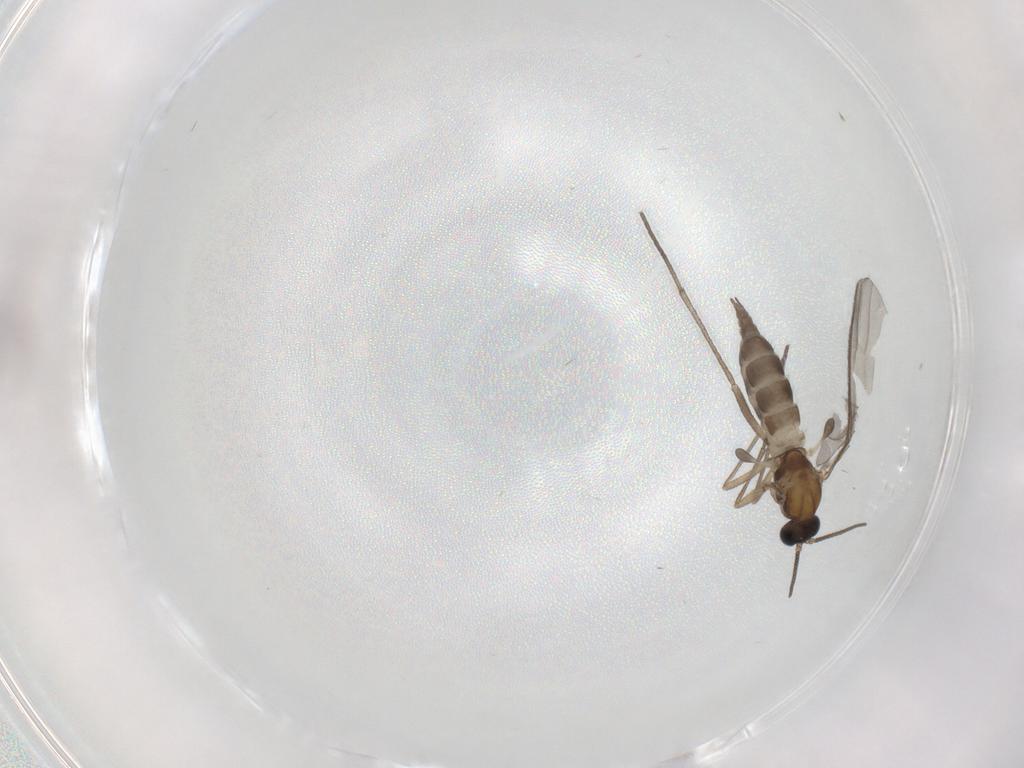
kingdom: Animalia
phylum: Arthropoda
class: Insecta
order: Diptera
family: Sciaridae
